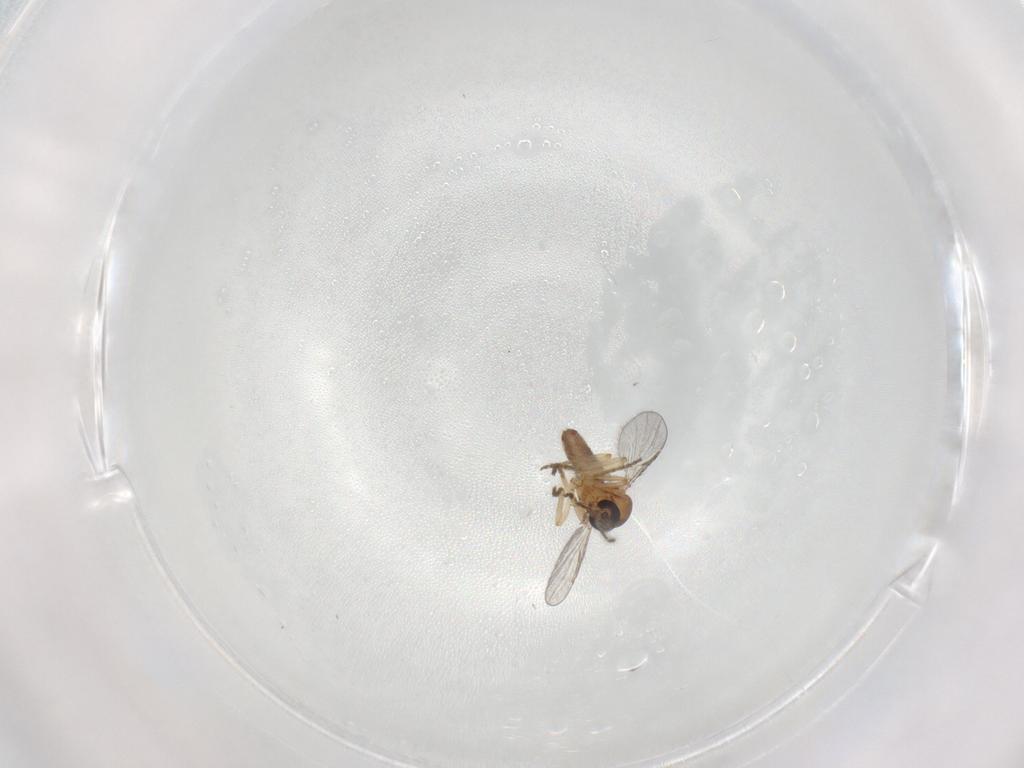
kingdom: Animalia
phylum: Arthropoda
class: Insecta
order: Diptera
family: Ceratopogonidae
